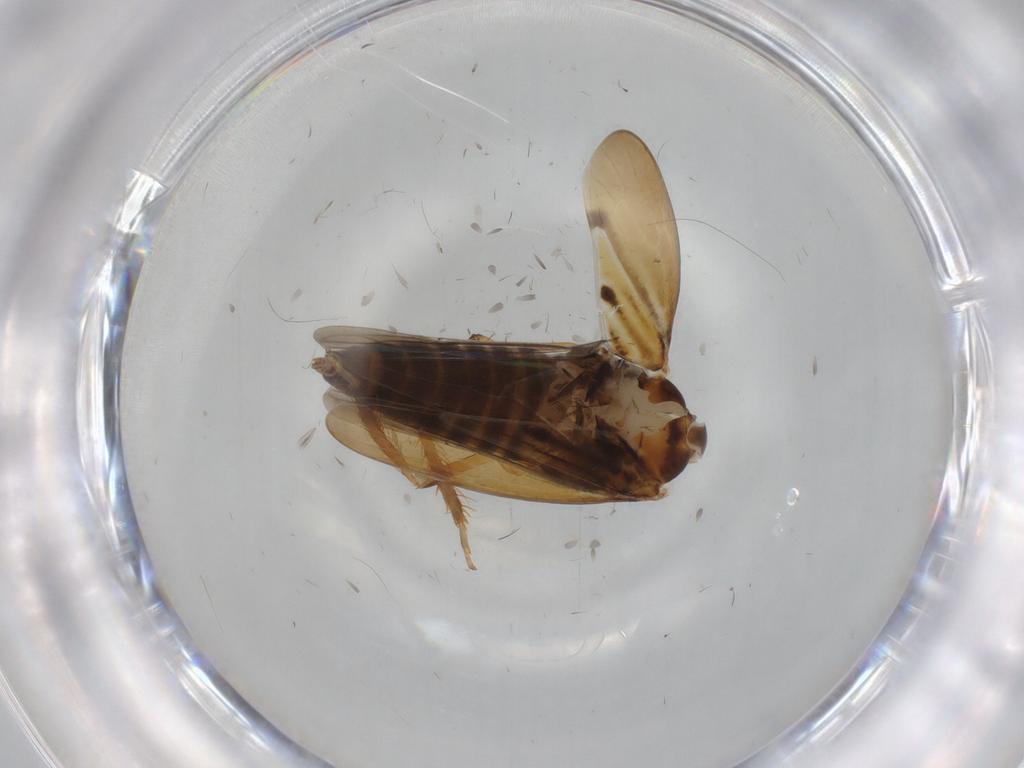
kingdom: Animalia
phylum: Arthropoda
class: Insecta
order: Hemiptera
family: Cicadellidae
